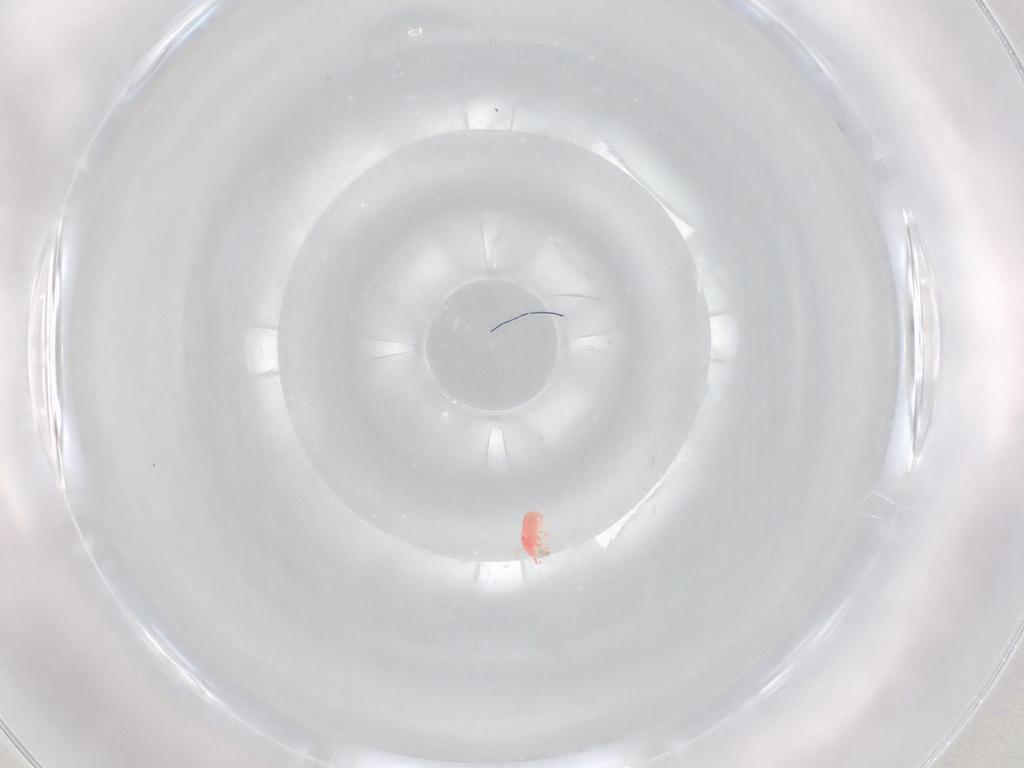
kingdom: Animalia
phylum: Arthropoda
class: Arachnida
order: Trombidiformes
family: Bdellidae
